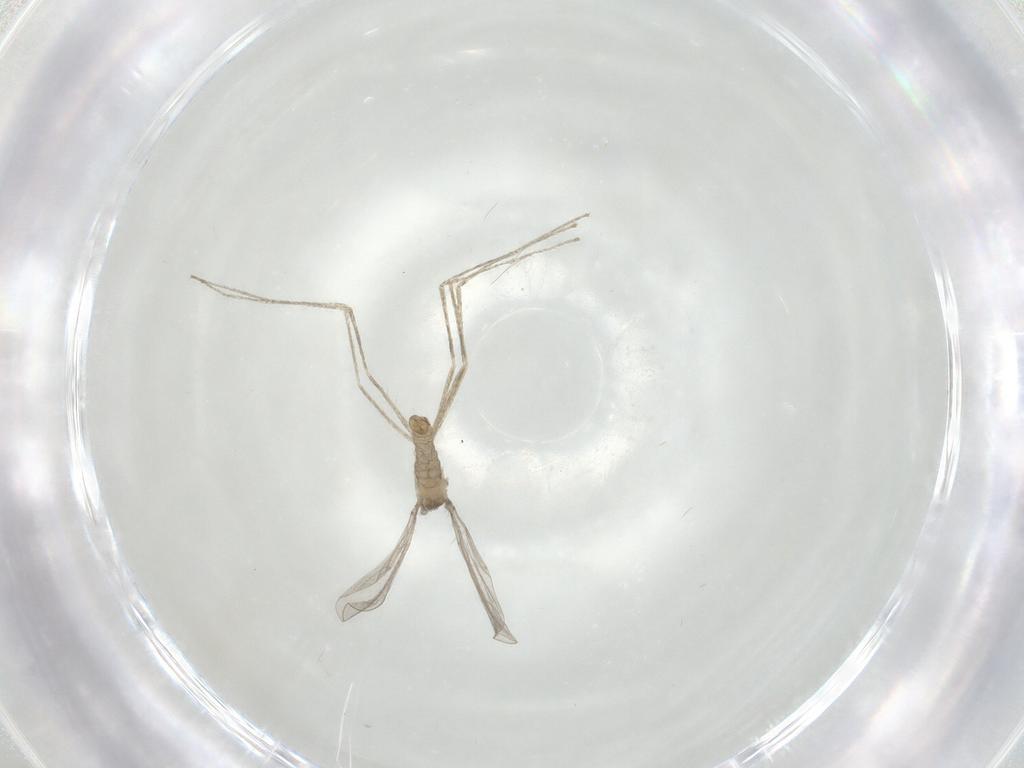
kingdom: Animalia
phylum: Arthropoda
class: Insecta
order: Diptera
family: Cecidomyiidae
